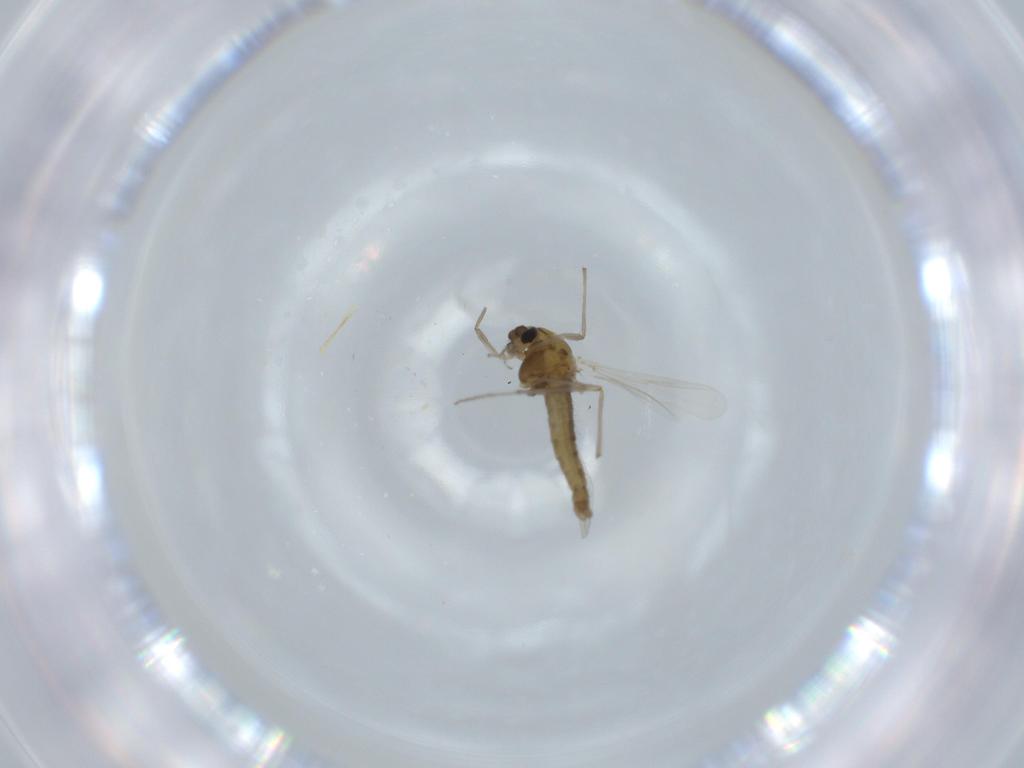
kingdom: Animalia
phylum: Arthropoda
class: Insecta
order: Diptera
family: Chironomidae
